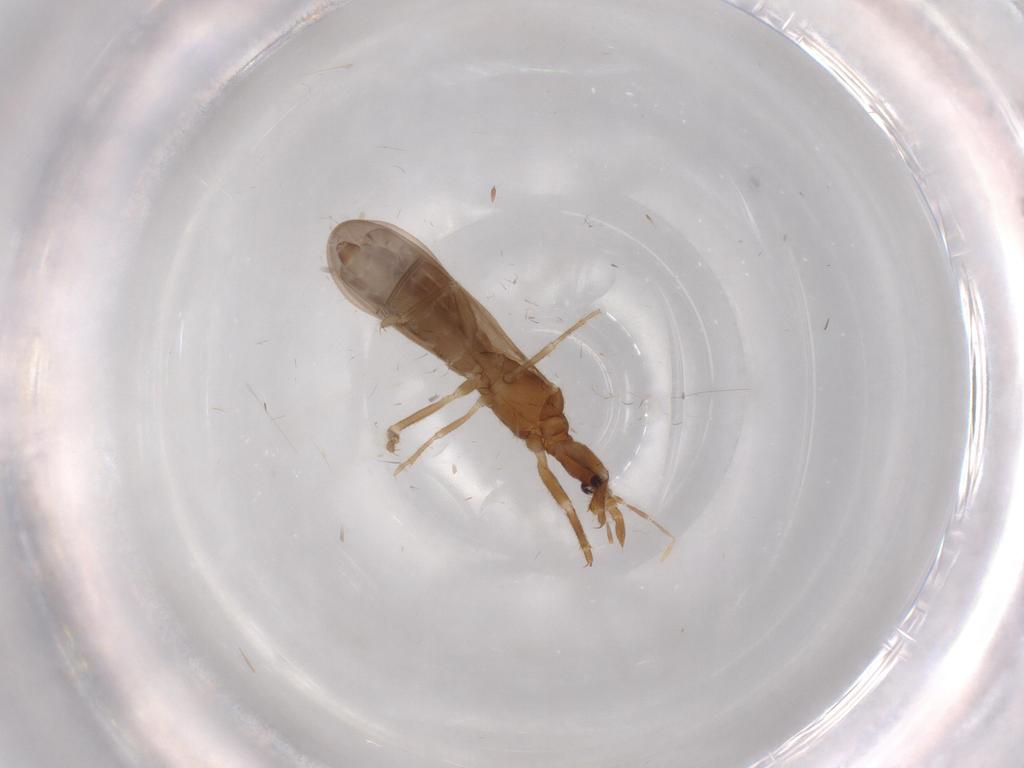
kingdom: Animalia
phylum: Arthropoda
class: Insecta
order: Hemiptera
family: Enicocephalidae
